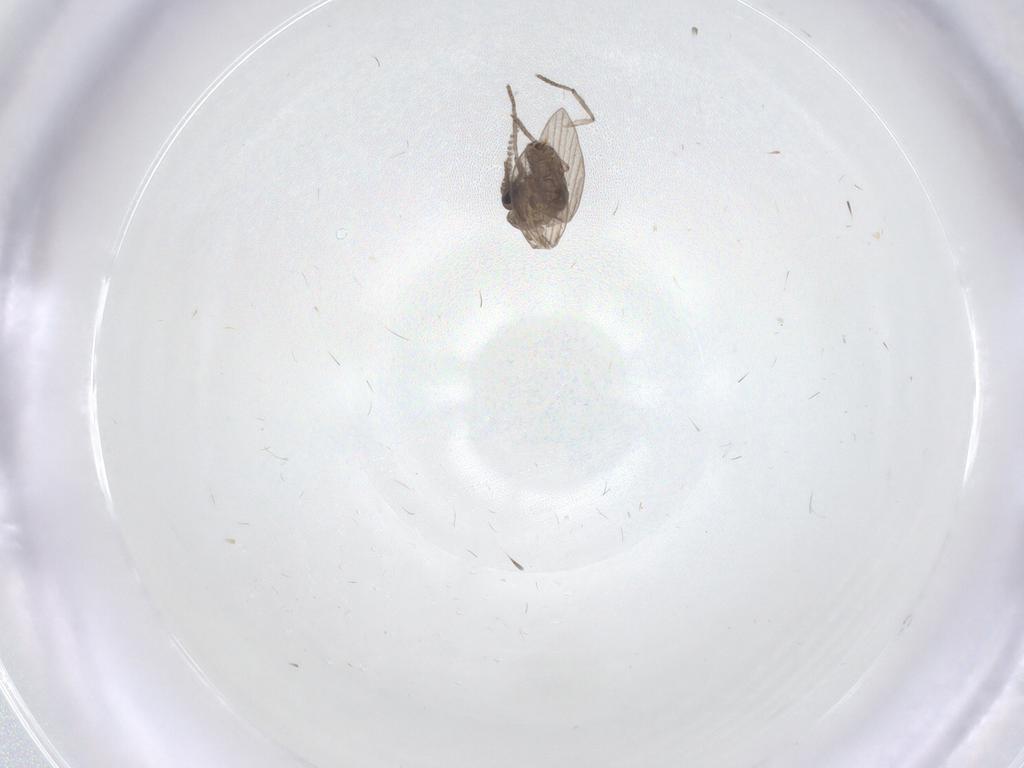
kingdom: Animalia
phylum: Arthropoda
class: Insecta
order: Diptera
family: Psychodidae
